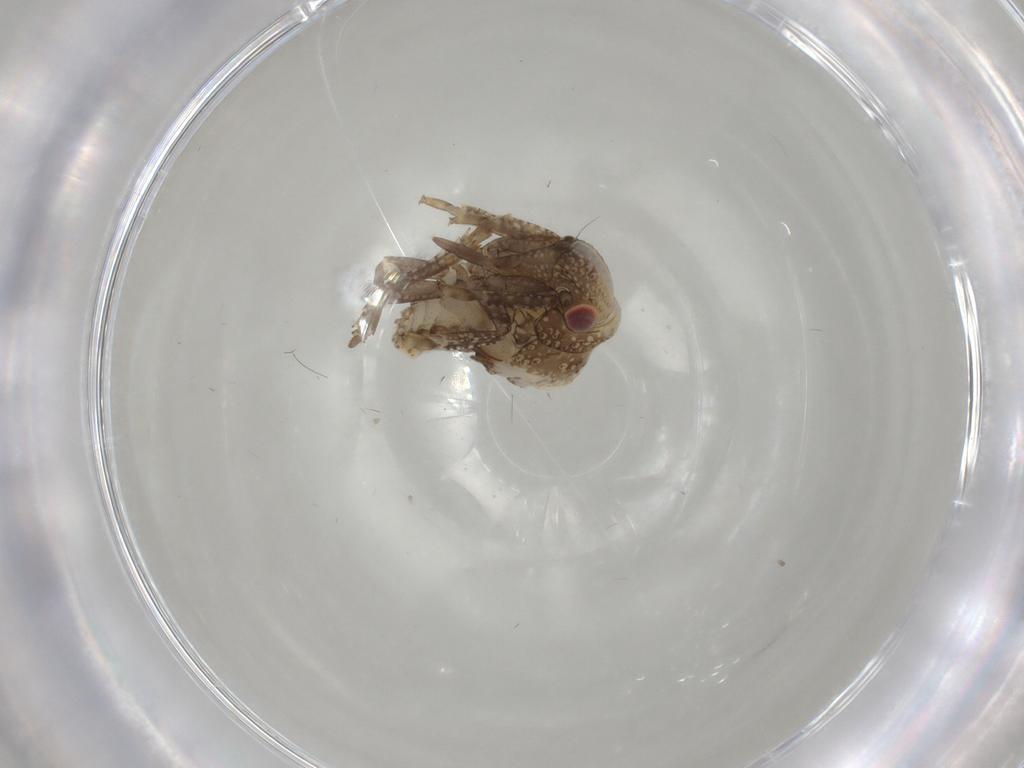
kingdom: Animalia
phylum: Arthropoda
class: Insecta
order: Hemiptera
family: Acanaloniidae
